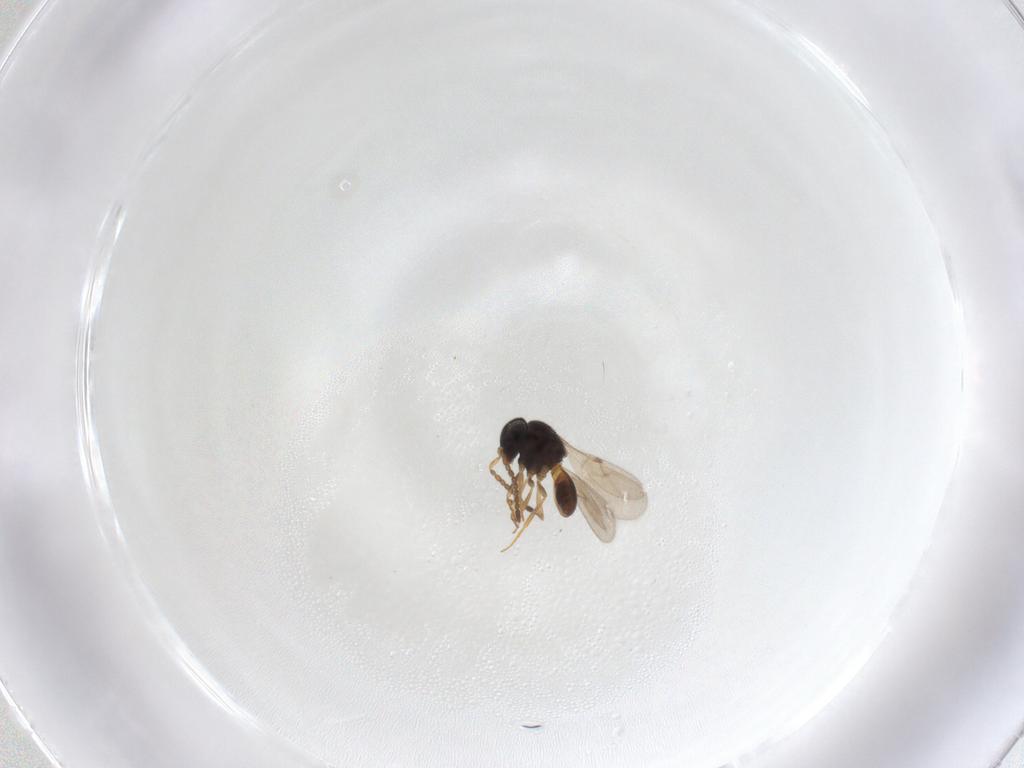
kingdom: Animalia
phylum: Arthropoda
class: Insecta
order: Hymenoptera
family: Scelionidae
